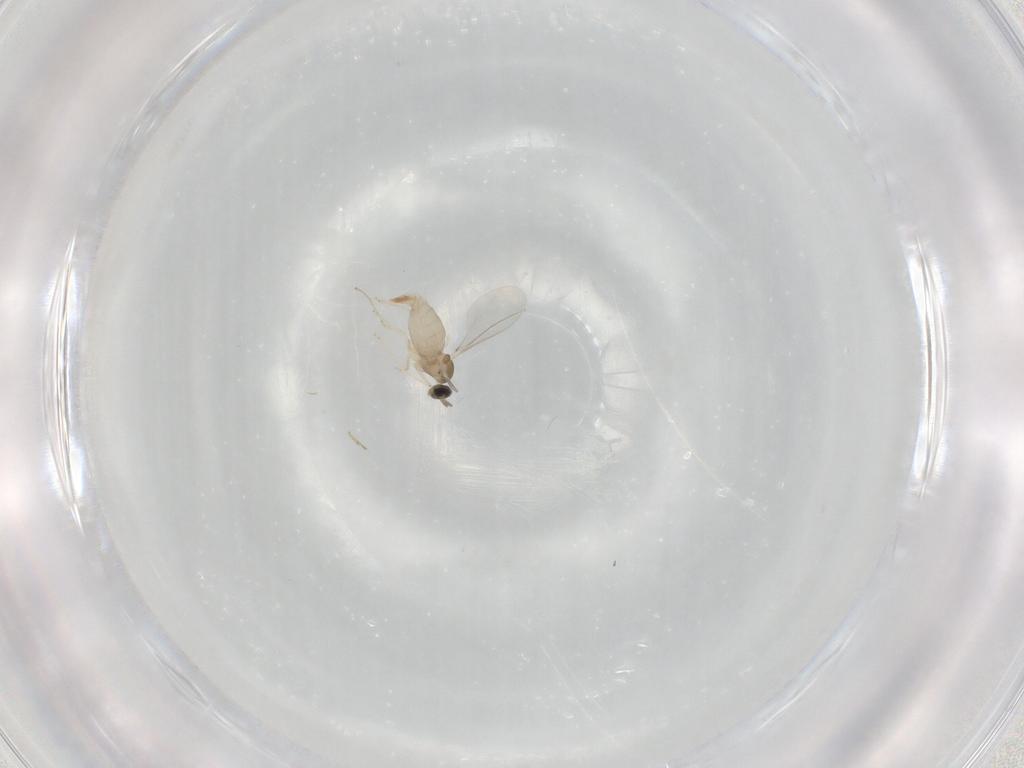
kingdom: Animalia
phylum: Arthropoda
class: Insecta
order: Diptera
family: Cecidomyiidae
